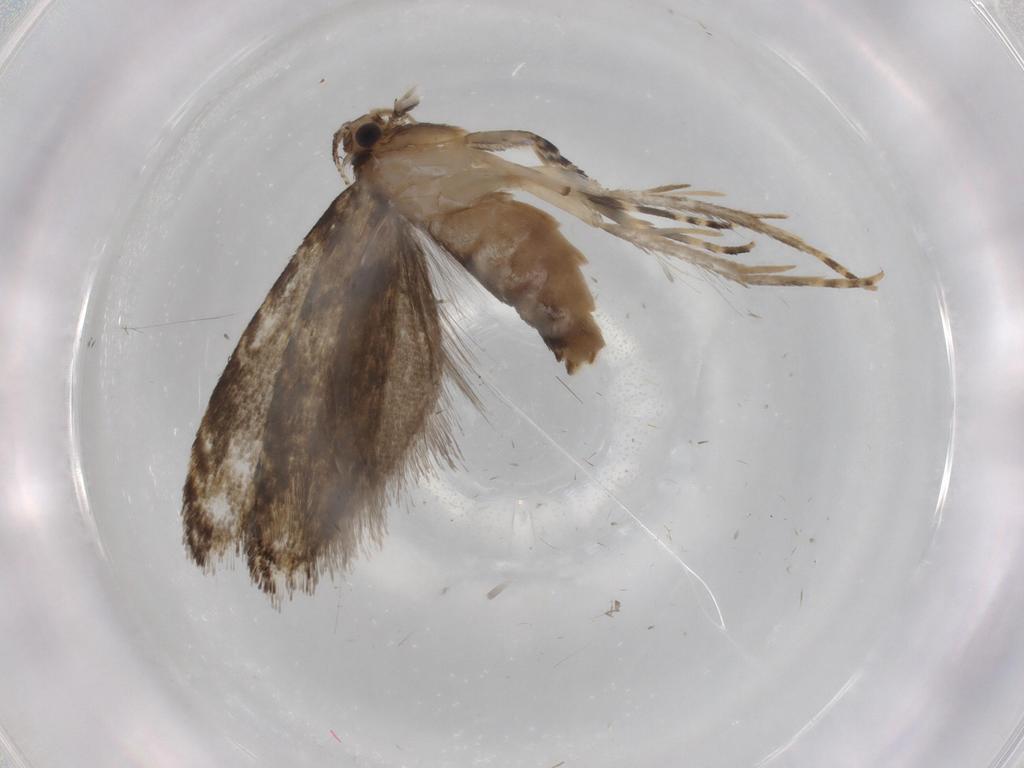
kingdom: Animalia
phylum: Arthropoda
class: Insecta
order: Lepidoptera
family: Tineidae
